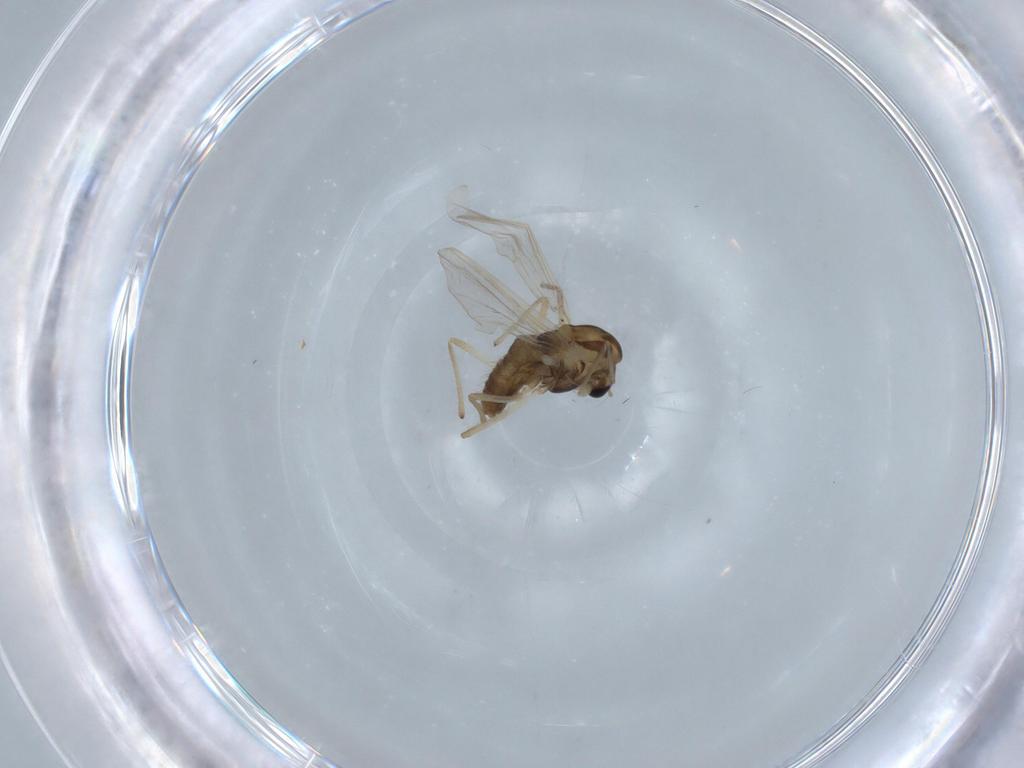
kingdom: Animalia
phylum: Arthropoda
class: Insecta
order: Diptera
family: Chironomidae
